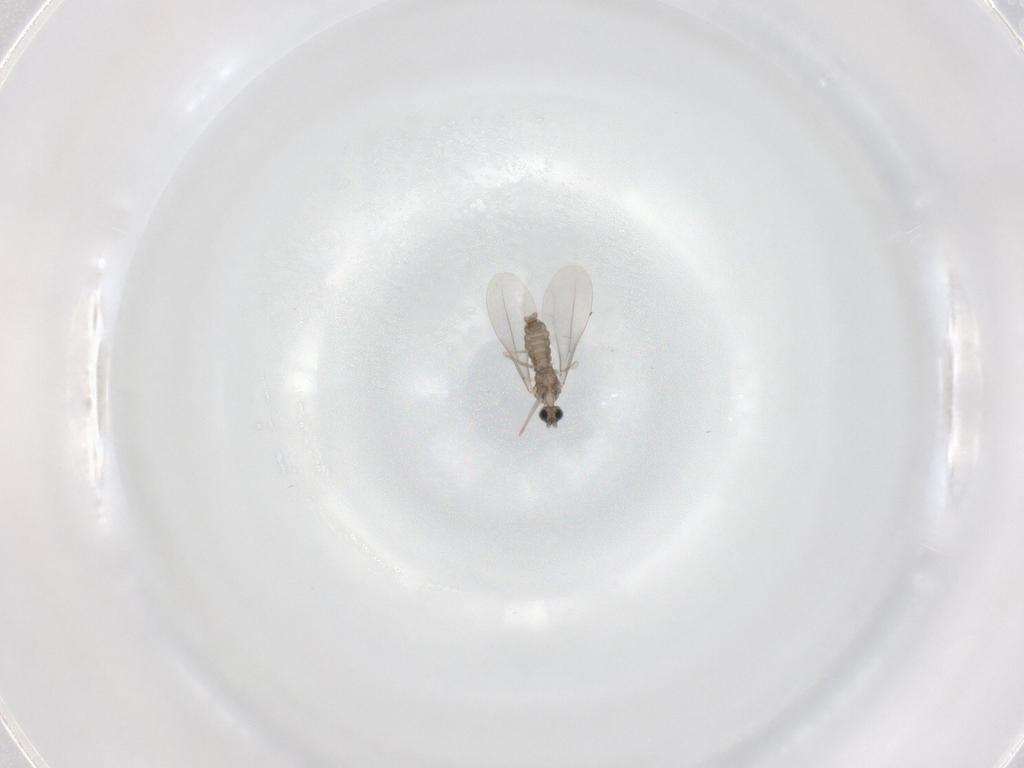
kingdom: Animalia
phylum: Arthropoda
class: Insecta
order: Diptera
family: Cecidomyiidae
